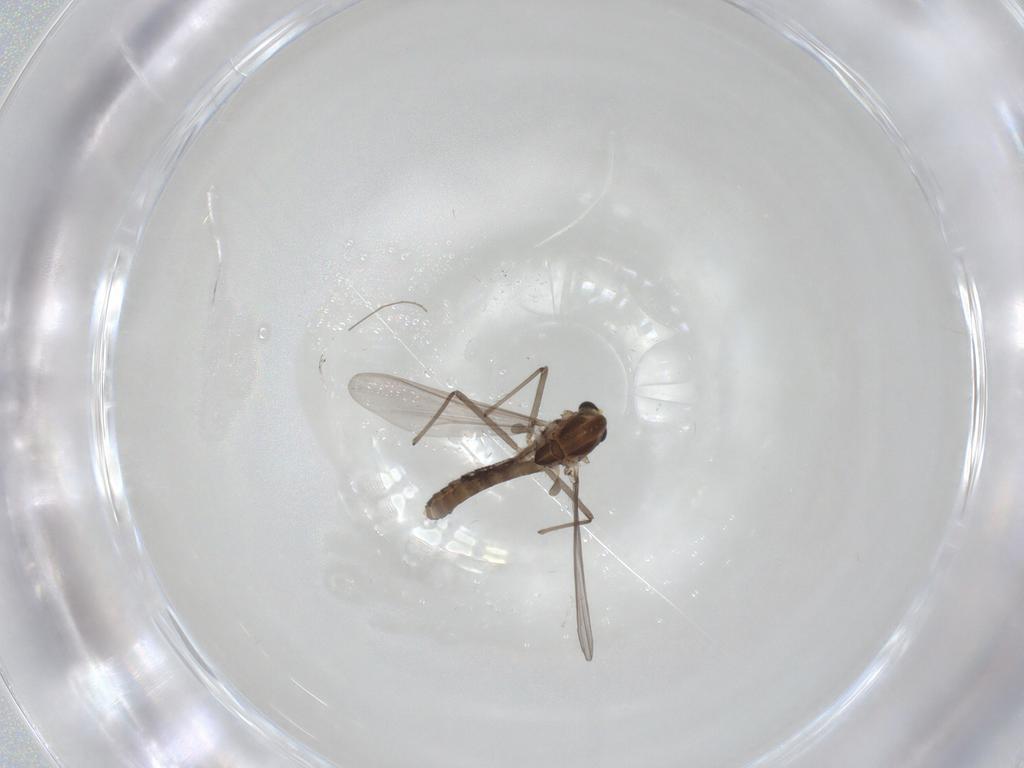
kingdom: Animalia
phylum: Arthropoda
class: Insecta
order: Diptera
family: Chironomidae
